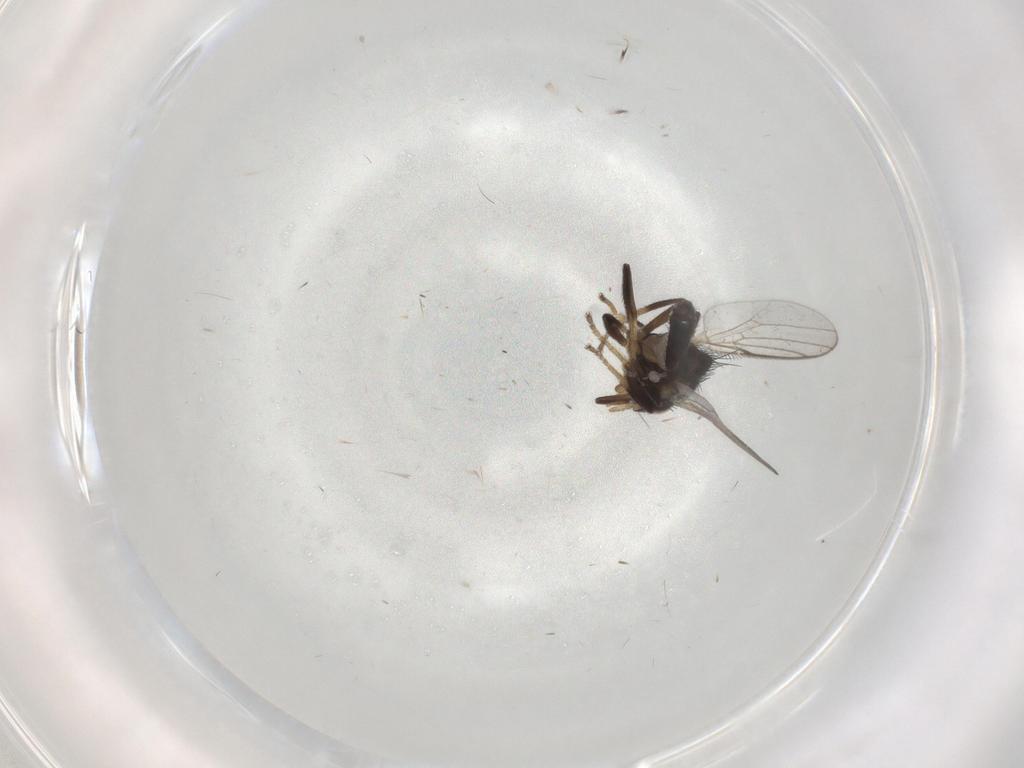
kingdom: Animalia
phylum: Arthropoda
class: Insecta
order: Diptera
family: Chloropidae
